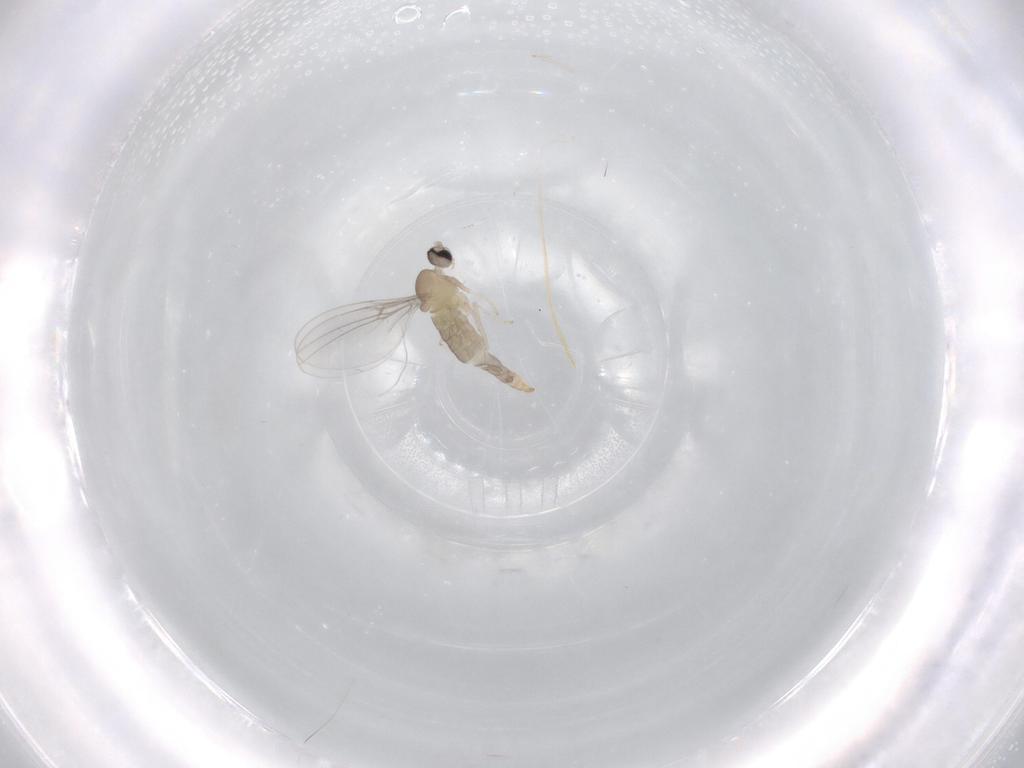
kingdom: Animalia
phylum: Arthropoda
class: Insecta
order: Diptera
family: Cecidomyiidae
